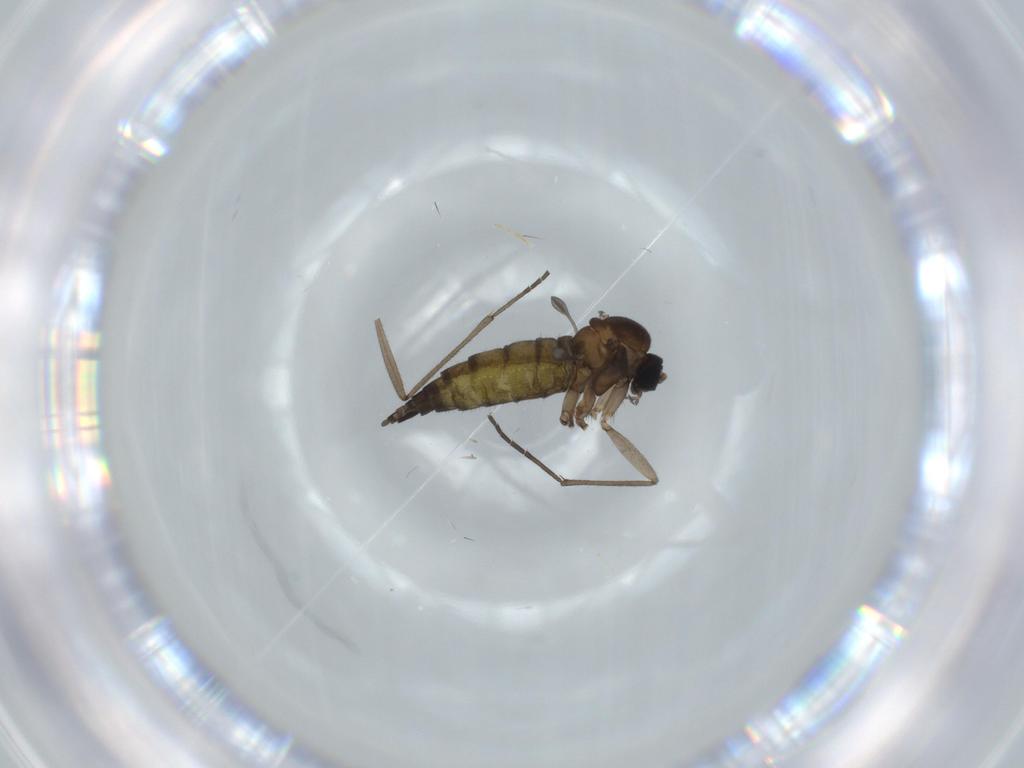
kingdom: Animalia
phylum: Arthropoda
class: Insecta
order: Diptera
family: Sciaridae
